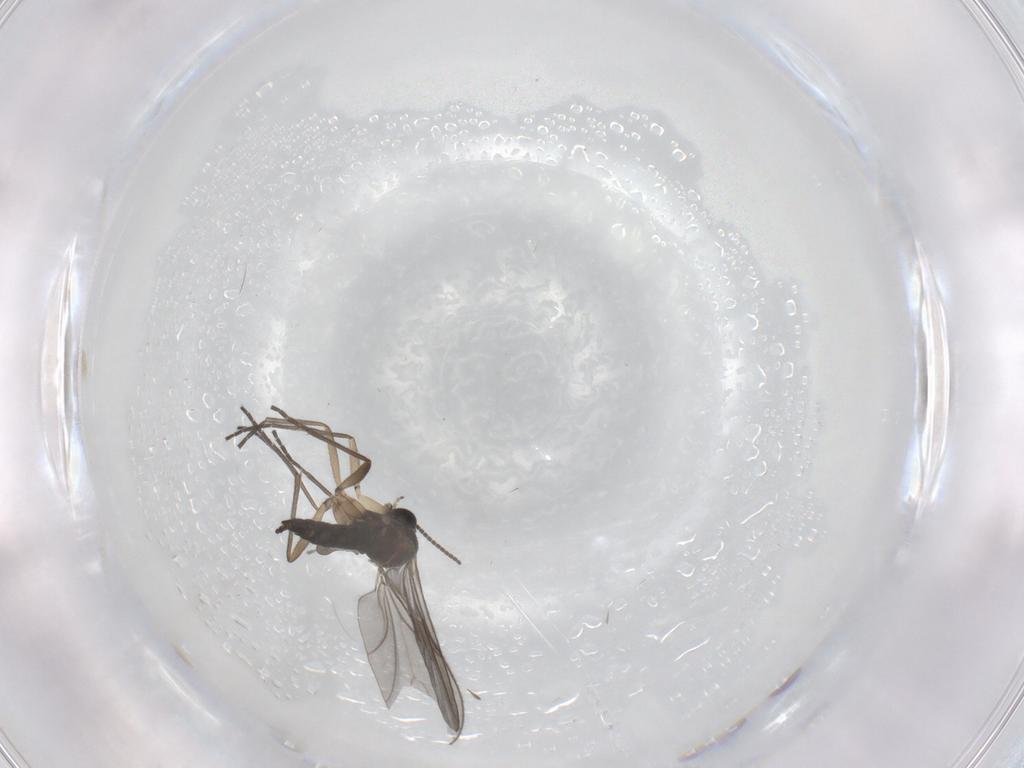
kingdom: Animalia
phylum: Arthropoda
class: Insecta
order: Diptera
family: Sciaridae
